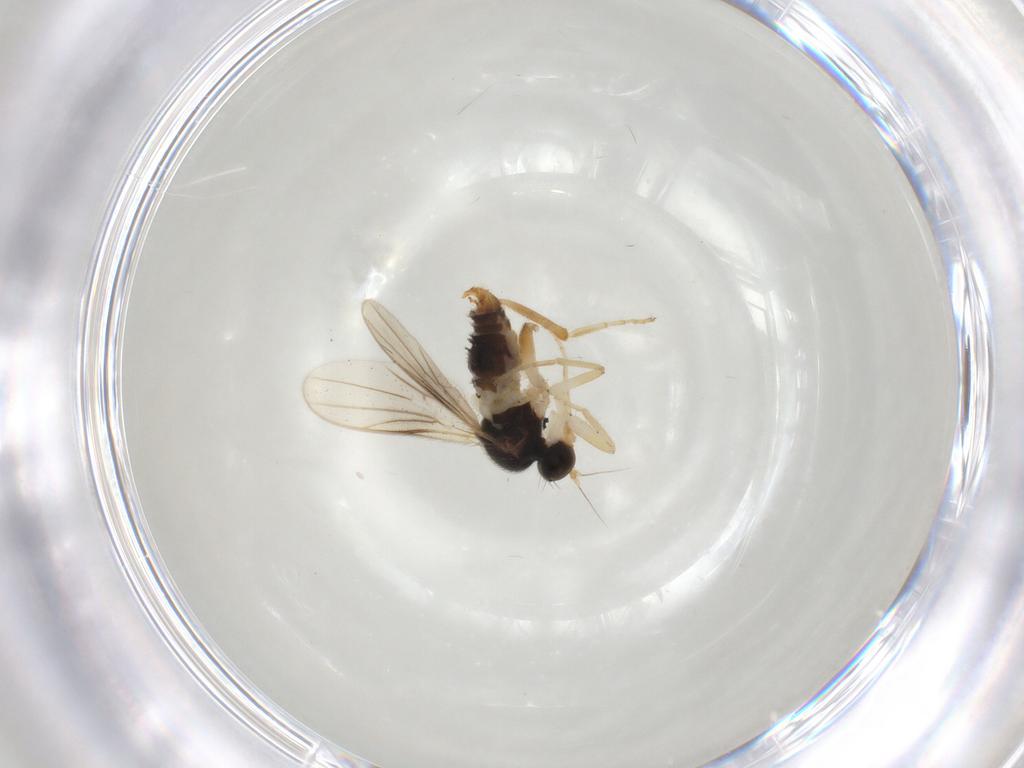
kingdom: Animalia
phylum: Arthropoda
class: Insecta
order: Diptera
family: Hybotidae
